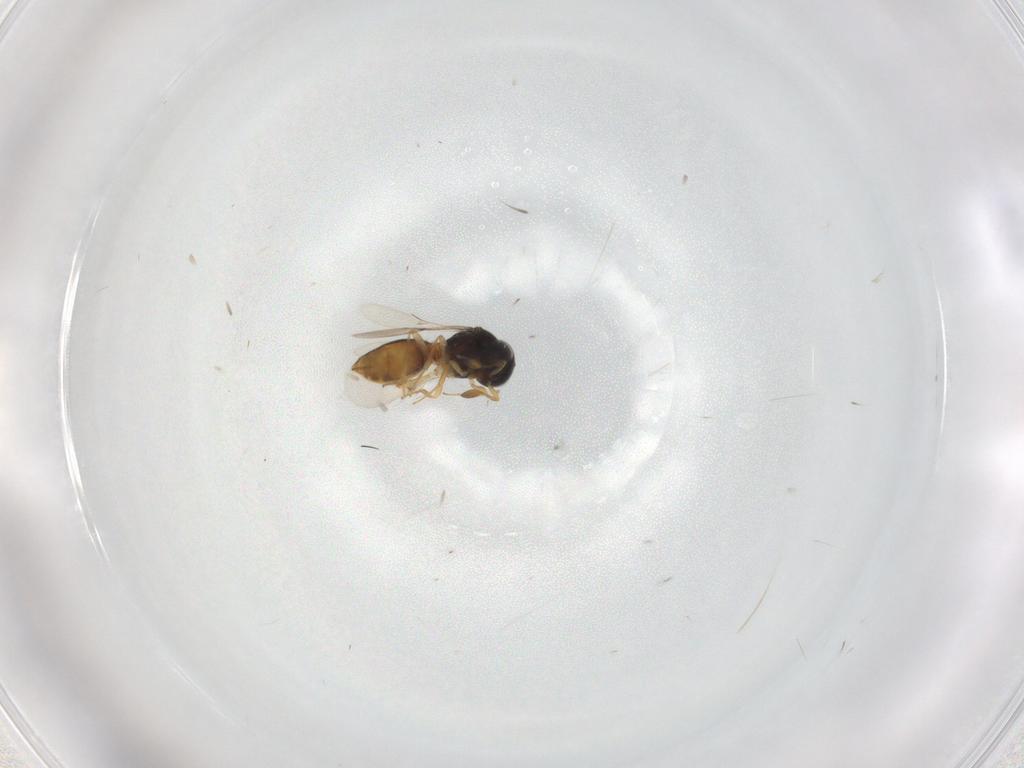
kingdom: Animalia
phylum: Arthropoda
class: Insecta
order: Hymenoptera
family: Scelionidae
